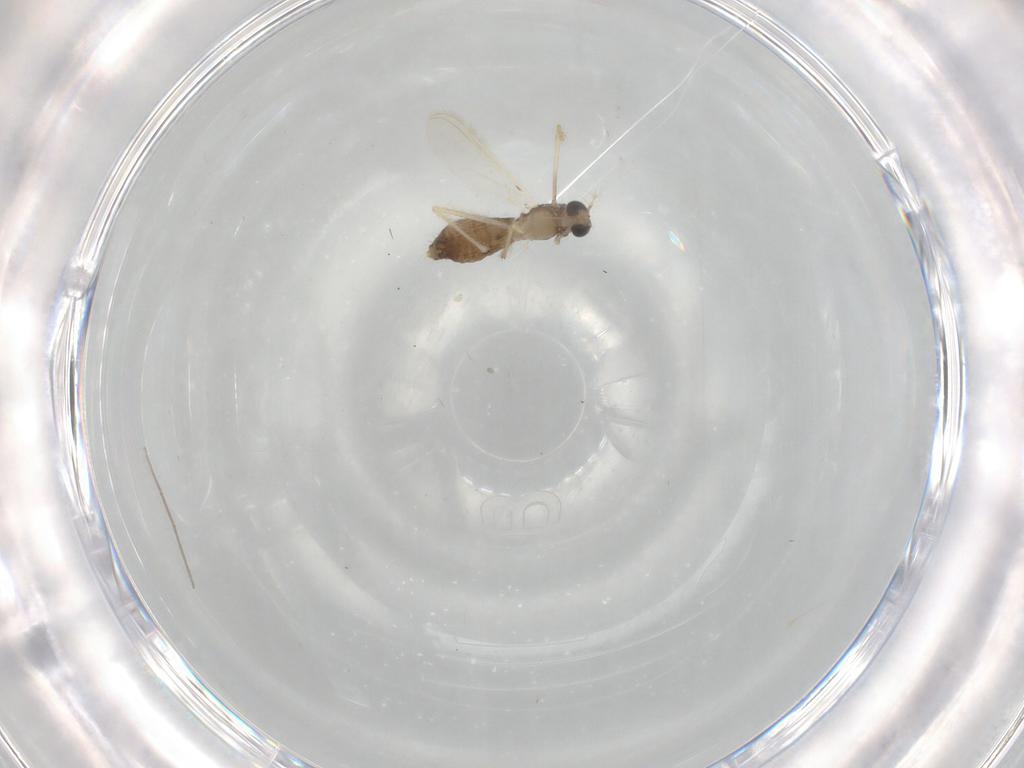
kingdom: Animalia
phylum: Arthropoda
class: Insecta
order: Diptera
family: Chironomidae
